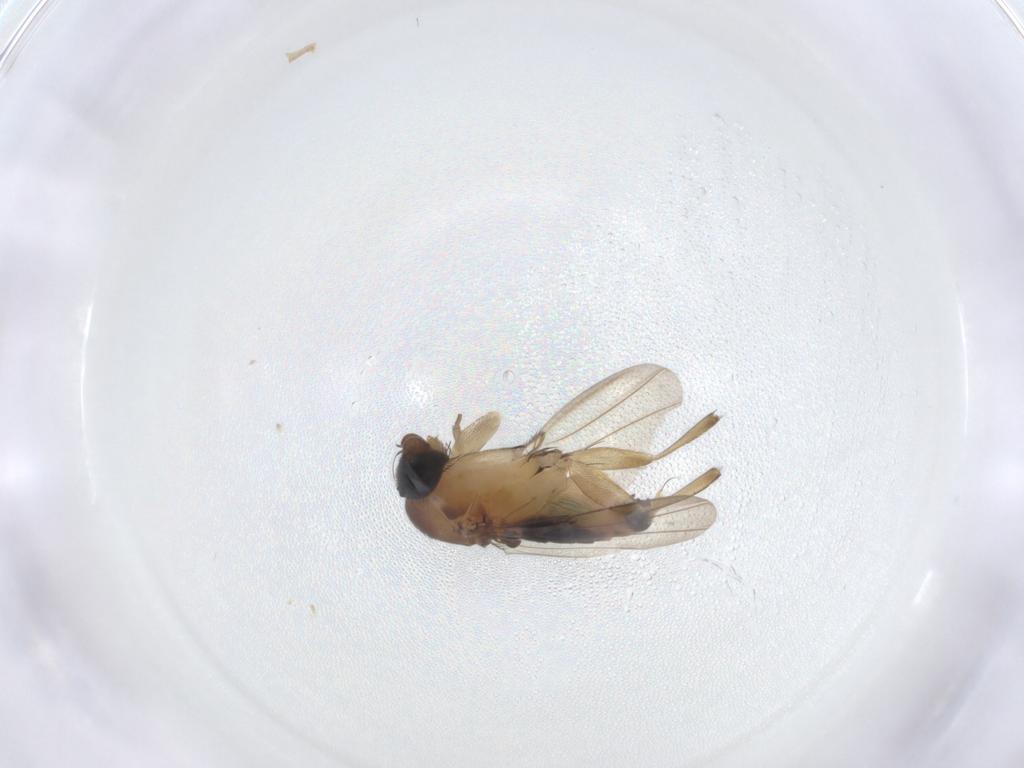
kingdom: Animalia
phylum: Arthropoda
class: Insecta
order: Diptera
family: Phoridae
